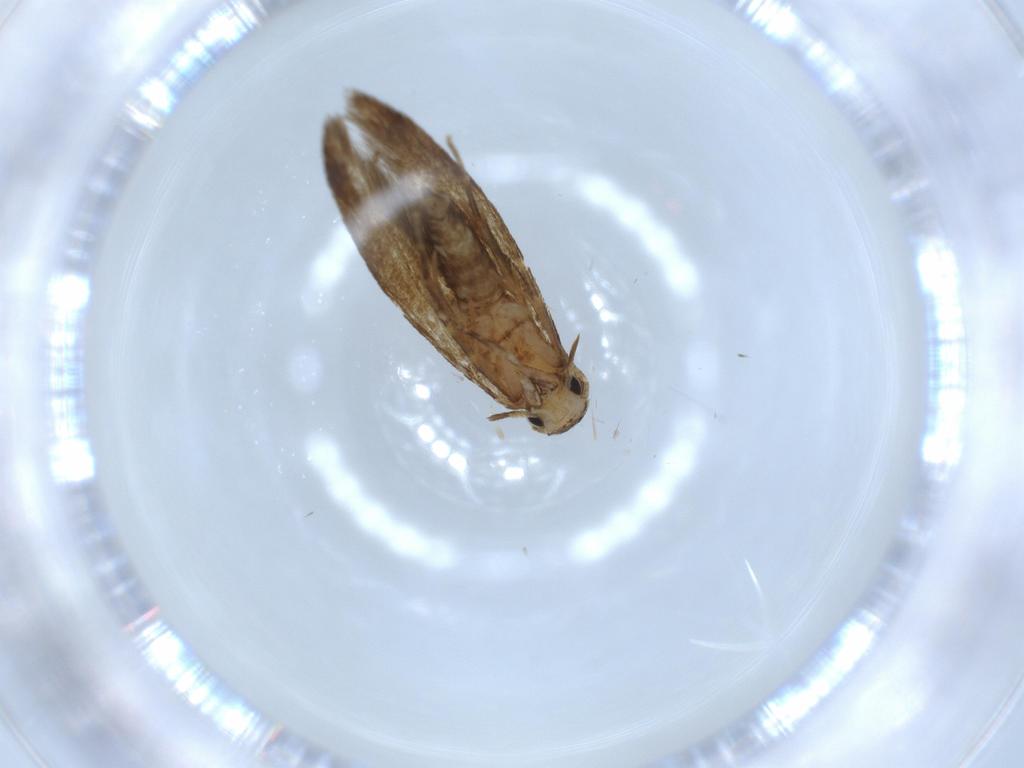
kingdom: Animalia
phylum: Arthropoda
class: Insecta
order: Lepidoptera
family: Tineidae
